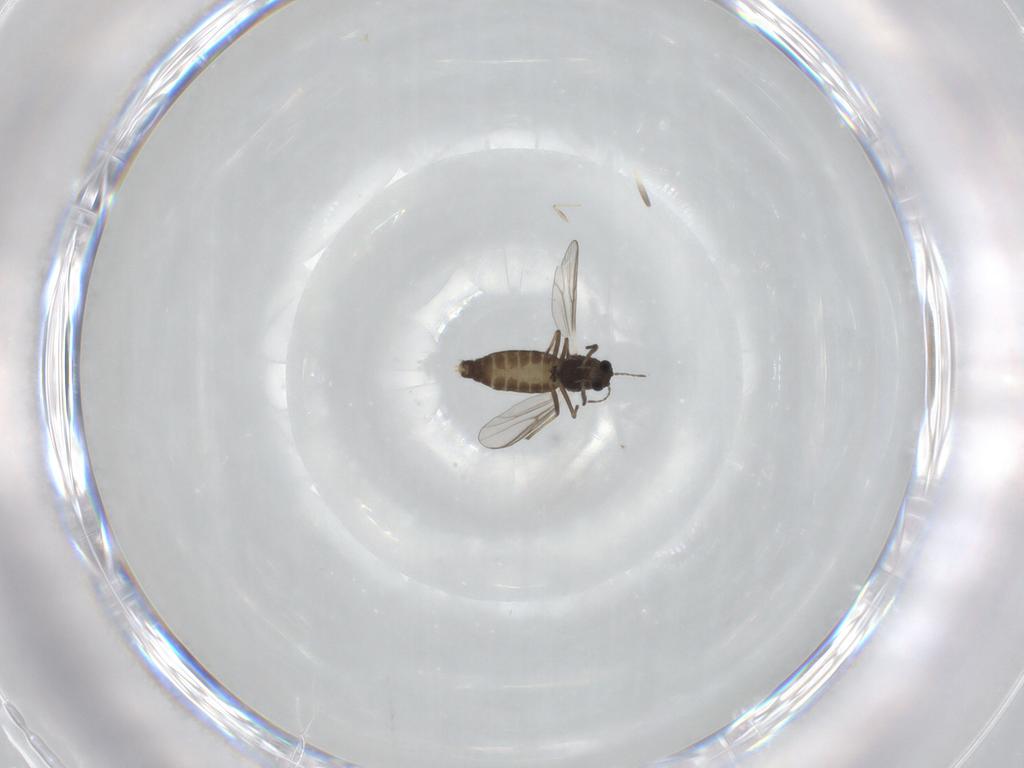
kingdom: Animalia
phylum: Arthropoda
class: Insecta
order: Diptera
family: Chironomidae
